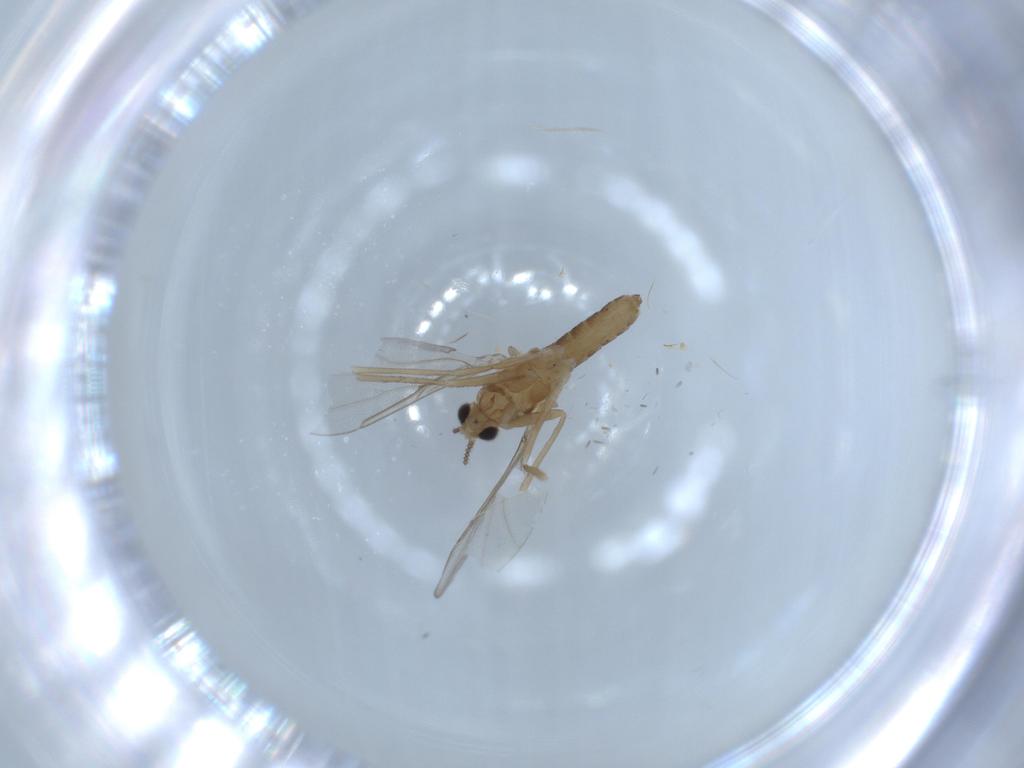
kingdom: Animalia
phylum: Arthropoda
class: Insecta
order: Diptera
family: Cecidomyiidae
